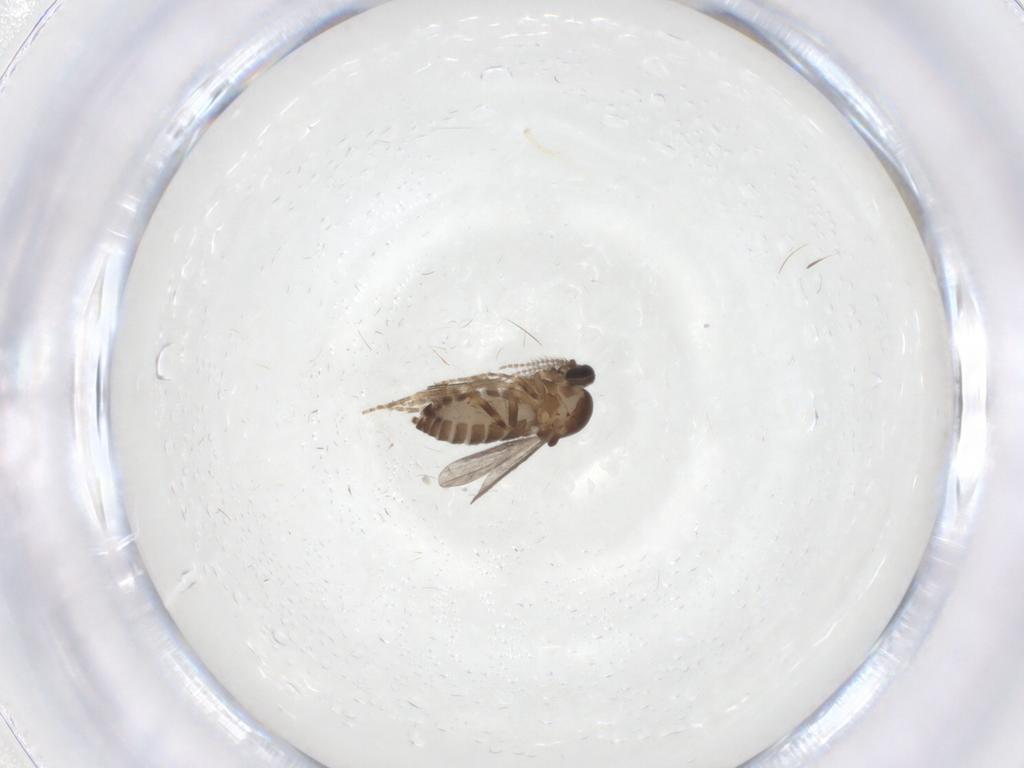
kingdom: Animalia
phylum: Arthropoda
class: Insecta
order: Diptera
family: Ceratopogonidae
